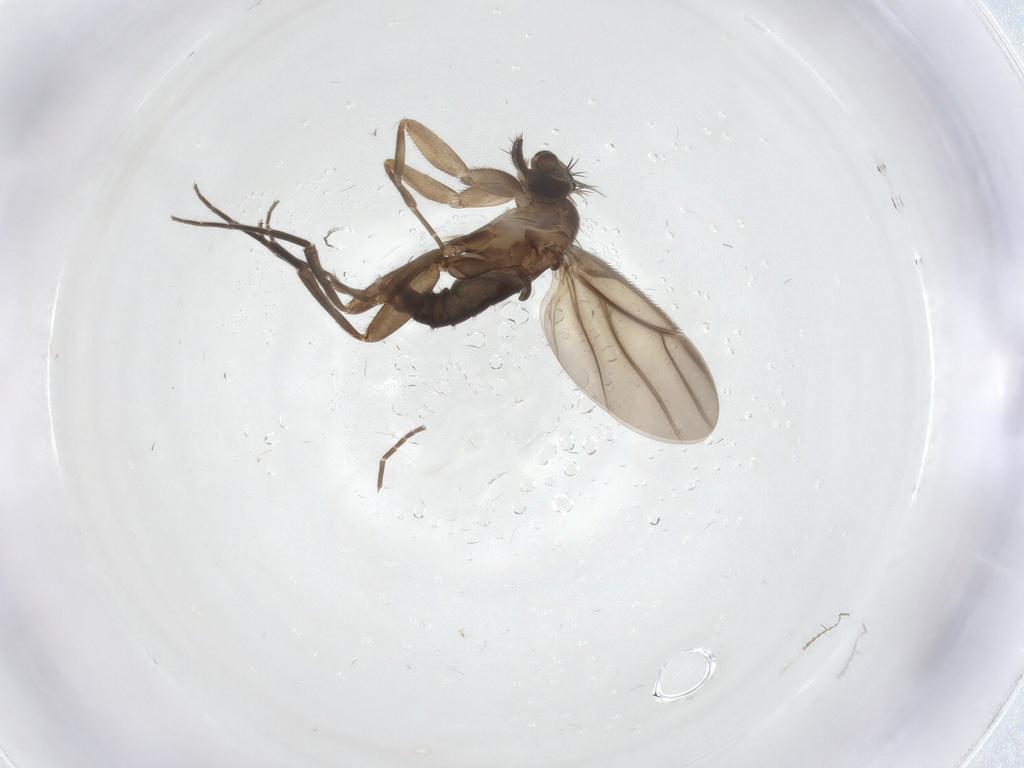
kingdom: Animalia
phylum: Arthropoda
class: Insecta
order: Diptera
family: Phoridae
